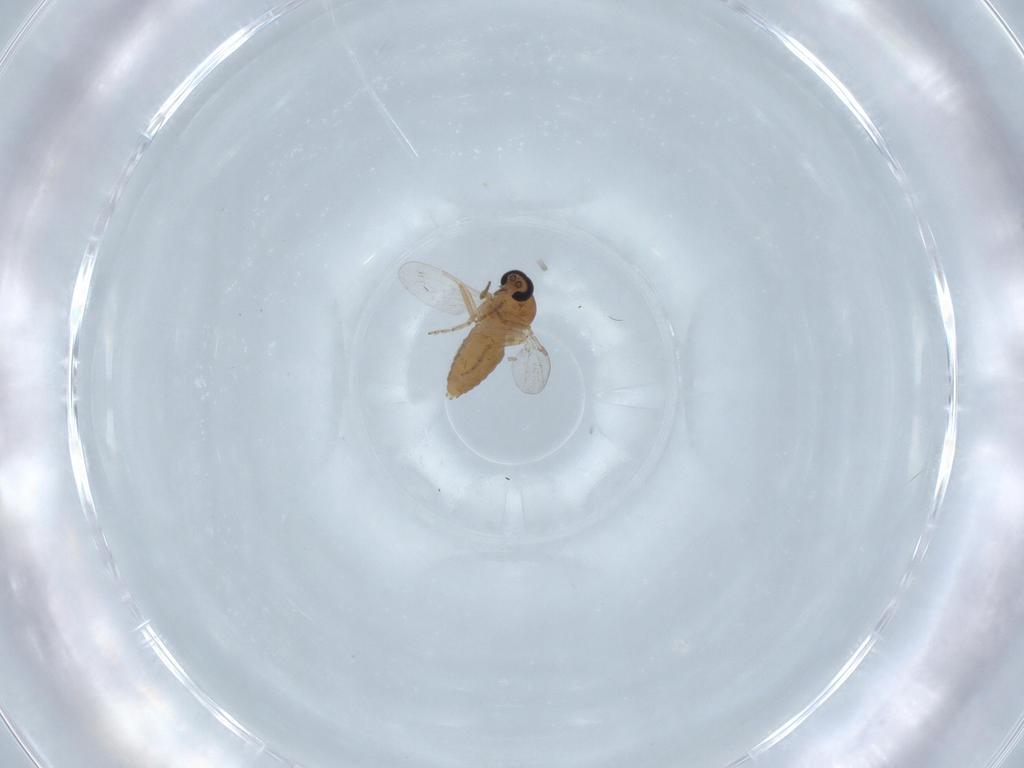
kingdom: Animalia
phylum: Arthropoda
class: Insecta
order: Diptera
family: Ceratopogonidae
